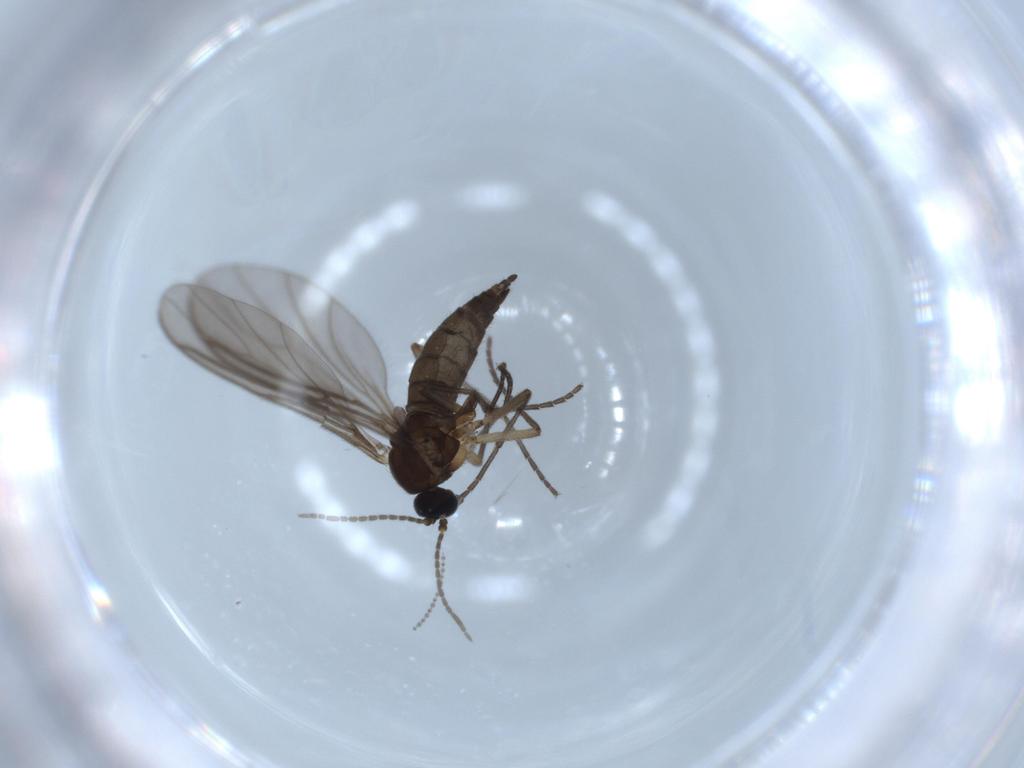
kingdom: Animalia
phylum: Arthropoda
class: Insecta
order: Diptera
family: Sciaridae
